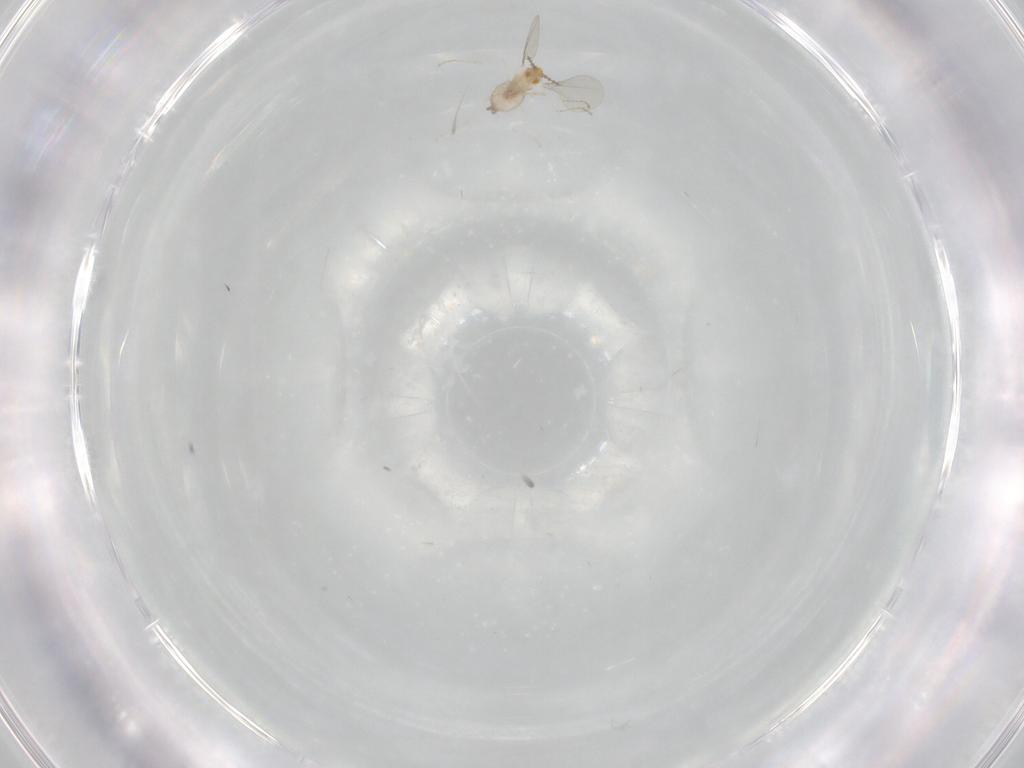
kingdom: Animalia
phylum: Arthropoda
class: Insecta
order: Diptera
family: Cecidomyiidae
